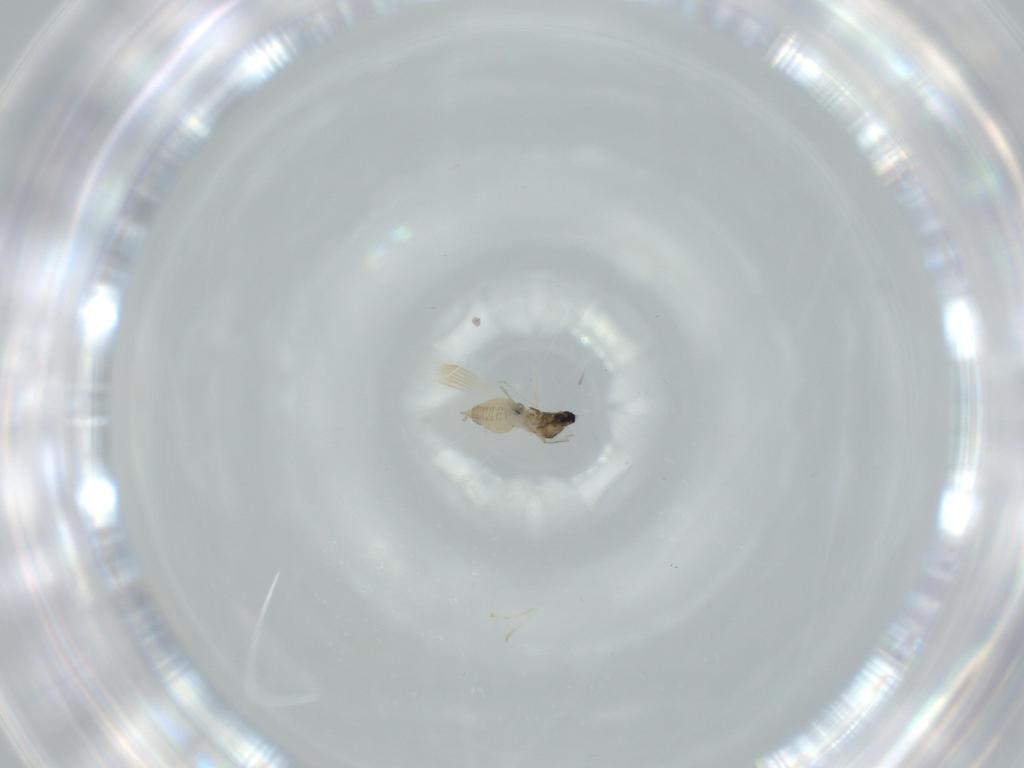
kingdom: Animalia
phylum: Arthropoda
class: Insecta
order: Diptera
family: Cecidomyiidae
